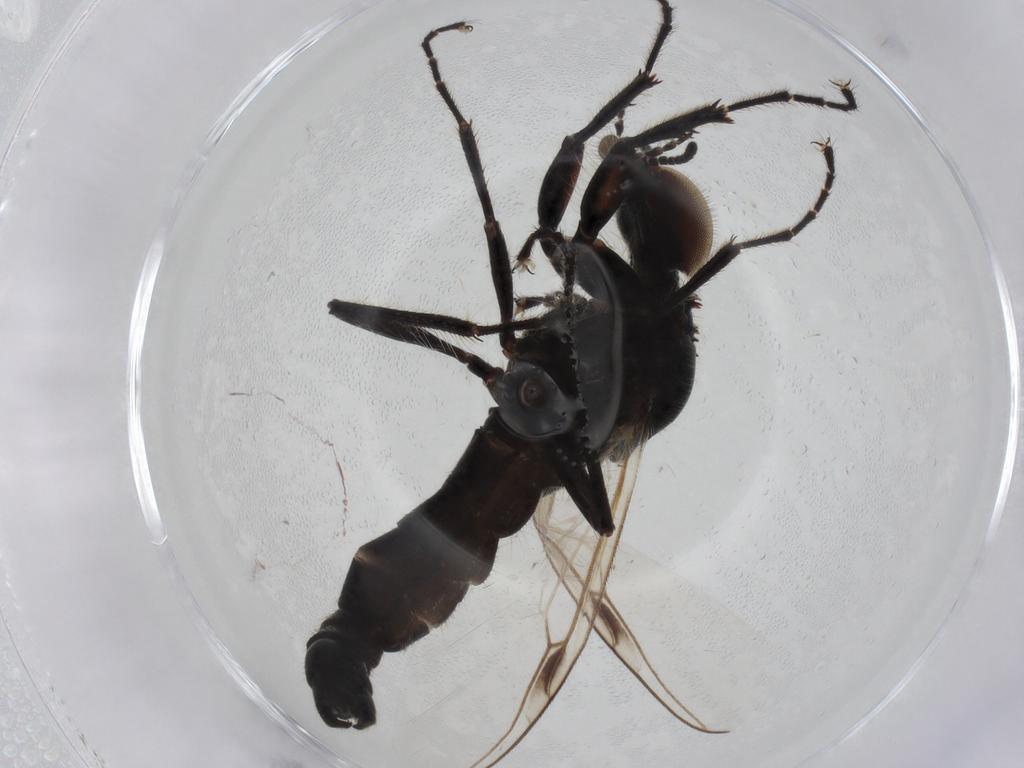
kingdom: Animalia
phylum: Arthropoda
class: Insecta
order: Diptera
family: Bibionidae
